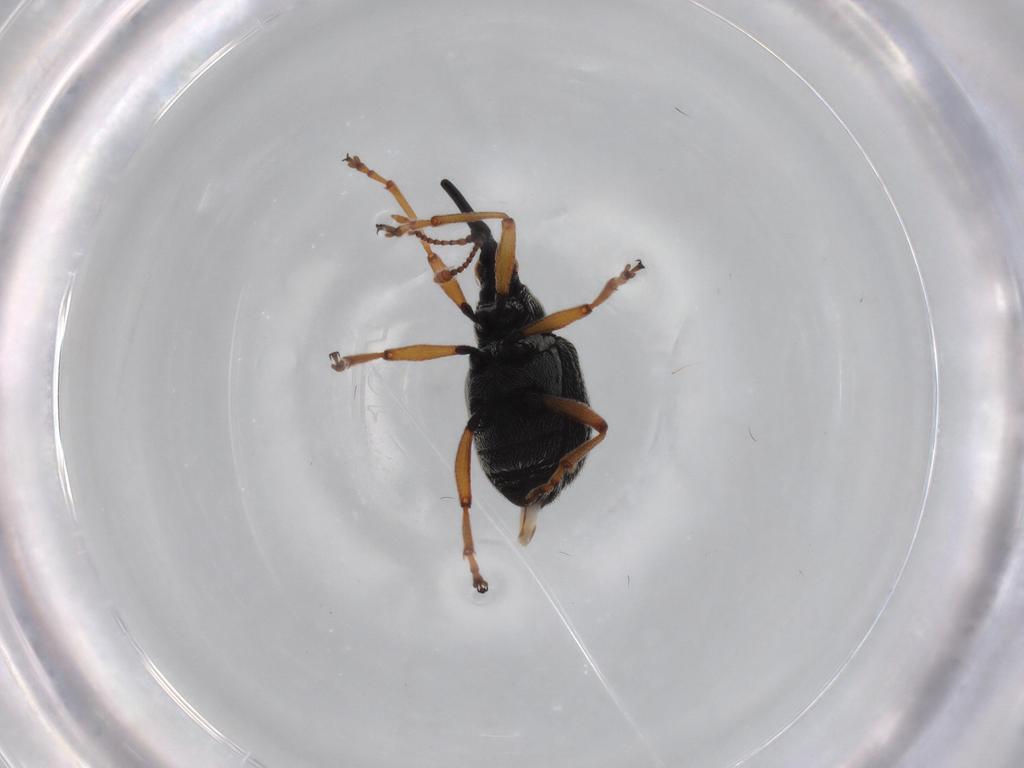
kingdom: Animalia
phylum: Arthropoda
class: Insecta
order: Coleoptera
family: Brentidae
